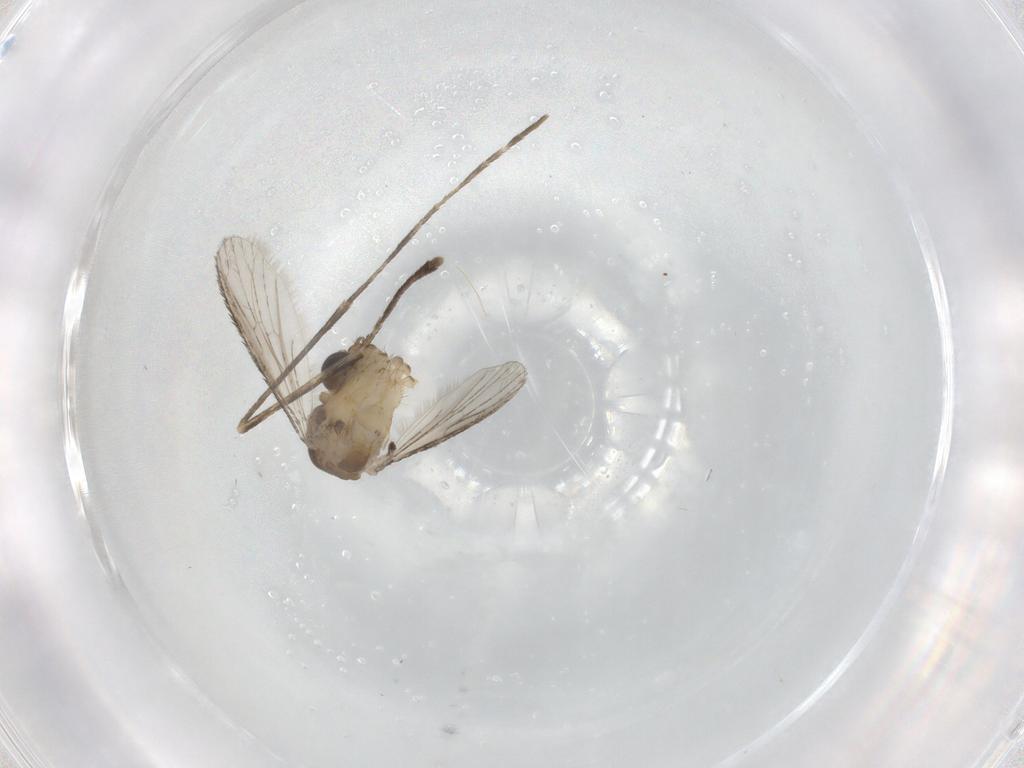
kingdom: Animalia
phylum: Arthropoda
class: Insecta
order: Diptera
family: Culicidae
